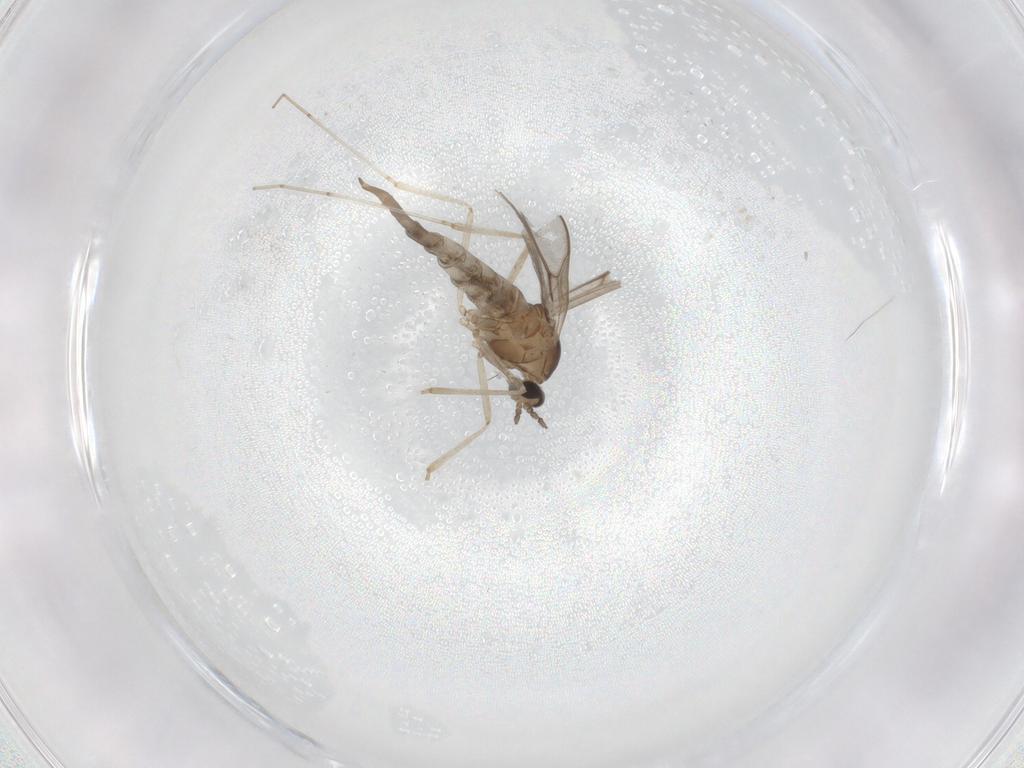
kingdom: Animalia
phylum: Arthropoda
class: Insecta
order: Diptera
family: Cecidomyiidae
